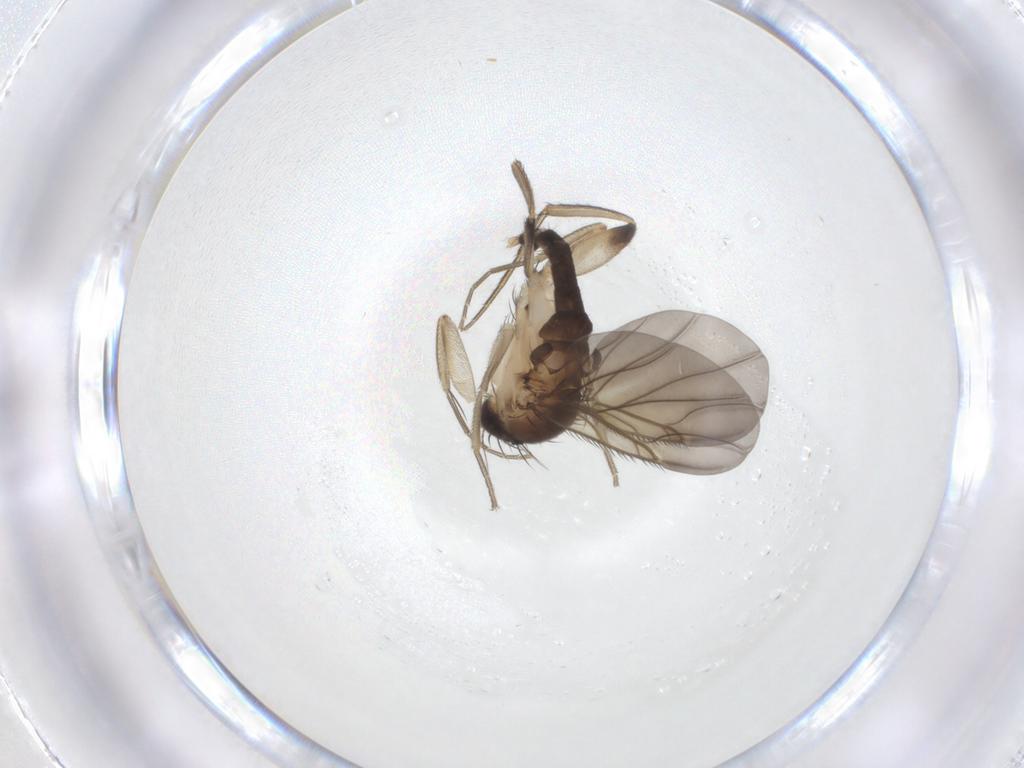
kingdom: Animalia
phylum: Arthropoda
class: Insecta
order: Diptera
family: Phoridae
